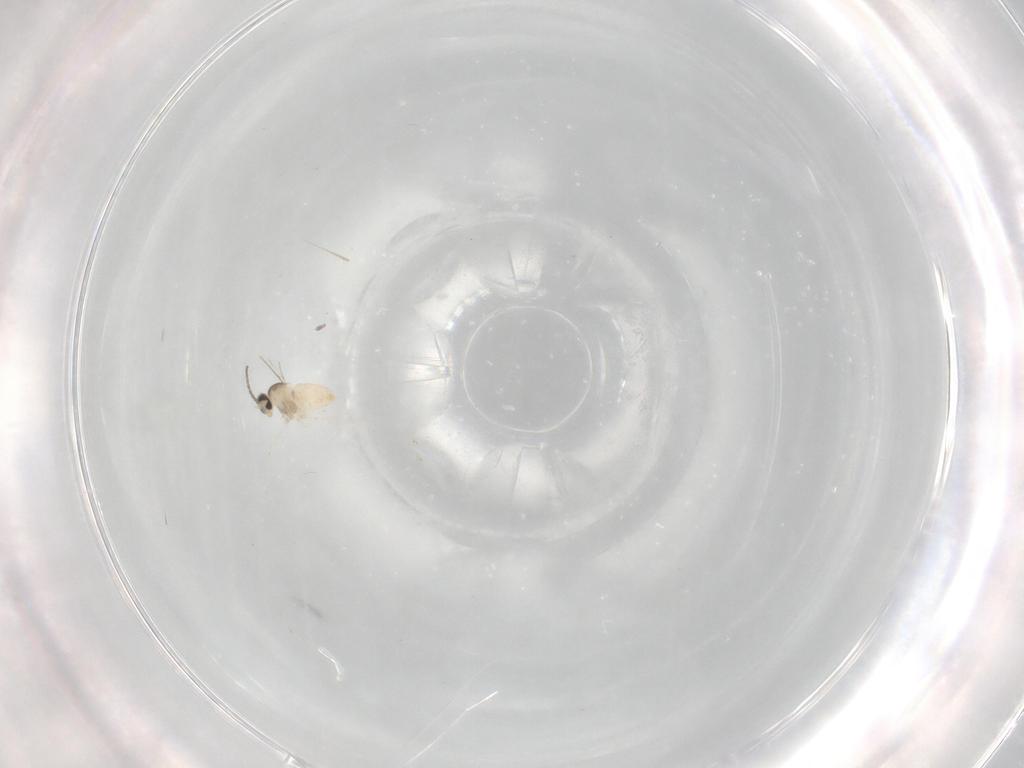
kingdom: Animalia
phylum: Arthropoda
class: Insecta
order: Diptera
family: Cecidomyiidae
